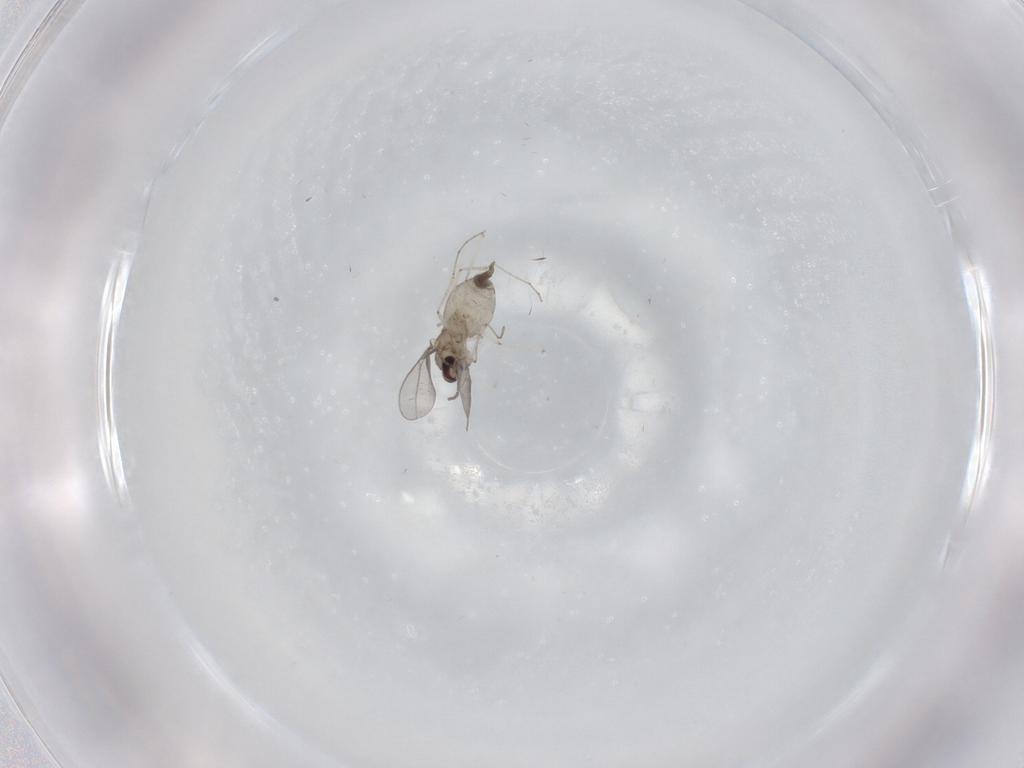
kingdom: Animalia
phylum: Arthropoda
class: Insecta
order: Diptera
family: Cecidomyiidae
